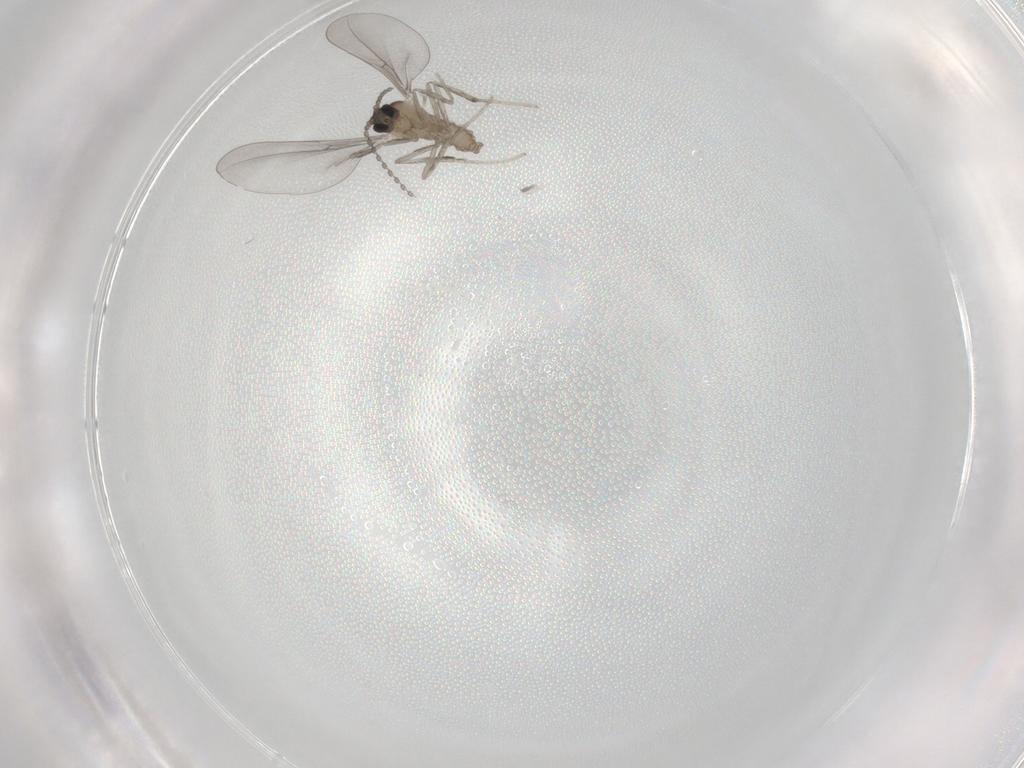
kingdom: Animalia
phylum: Arthropoda
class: Insecta
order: Diptera
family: Cecidomyiidae
